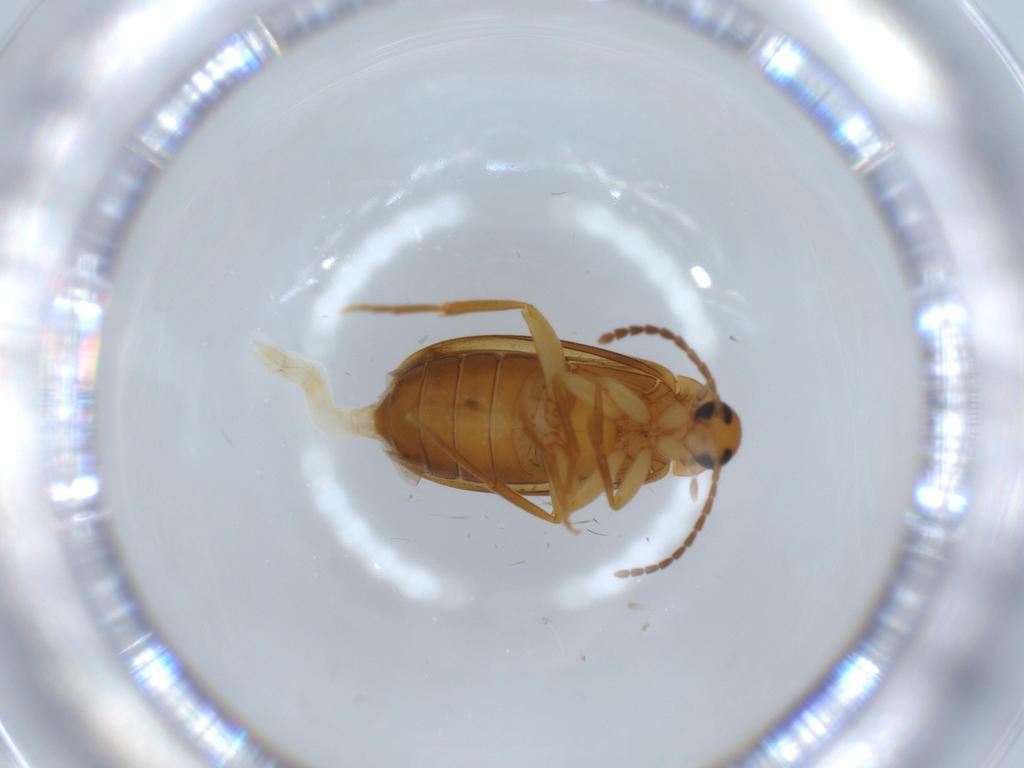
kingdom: Animalia
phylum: Arthropoda
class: Insecta
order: Coleoptera
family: Scraptiidae
